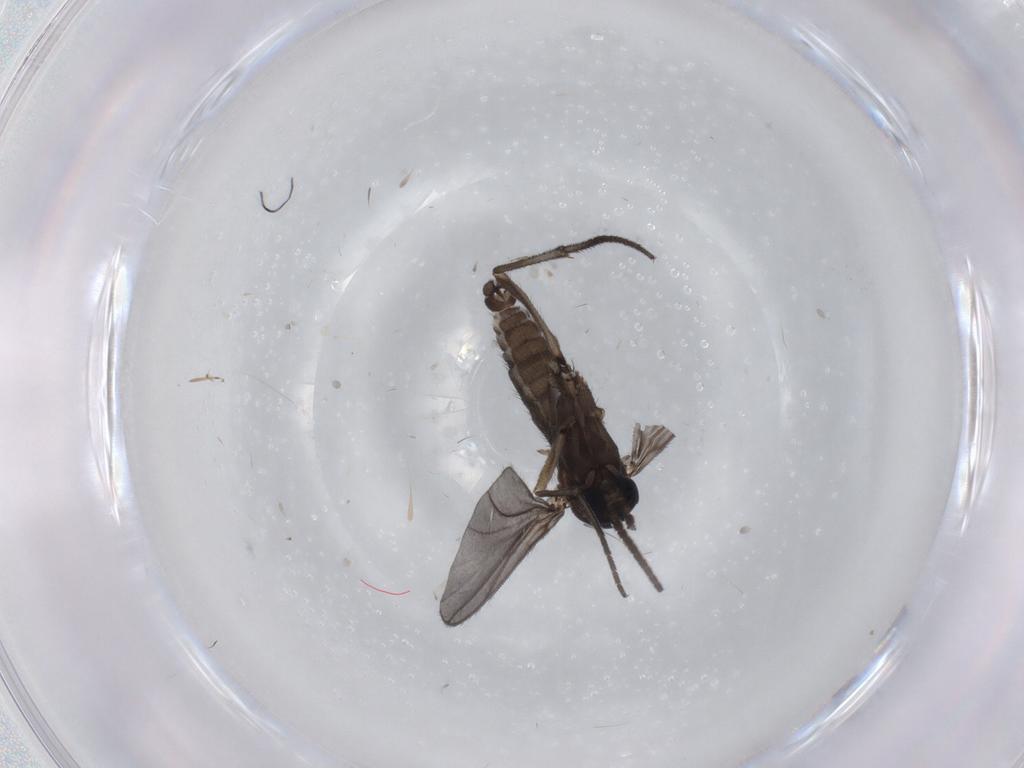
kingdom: Animalia
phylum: Arthropoda
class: Insecta
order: Diptera
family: Sciaridae
